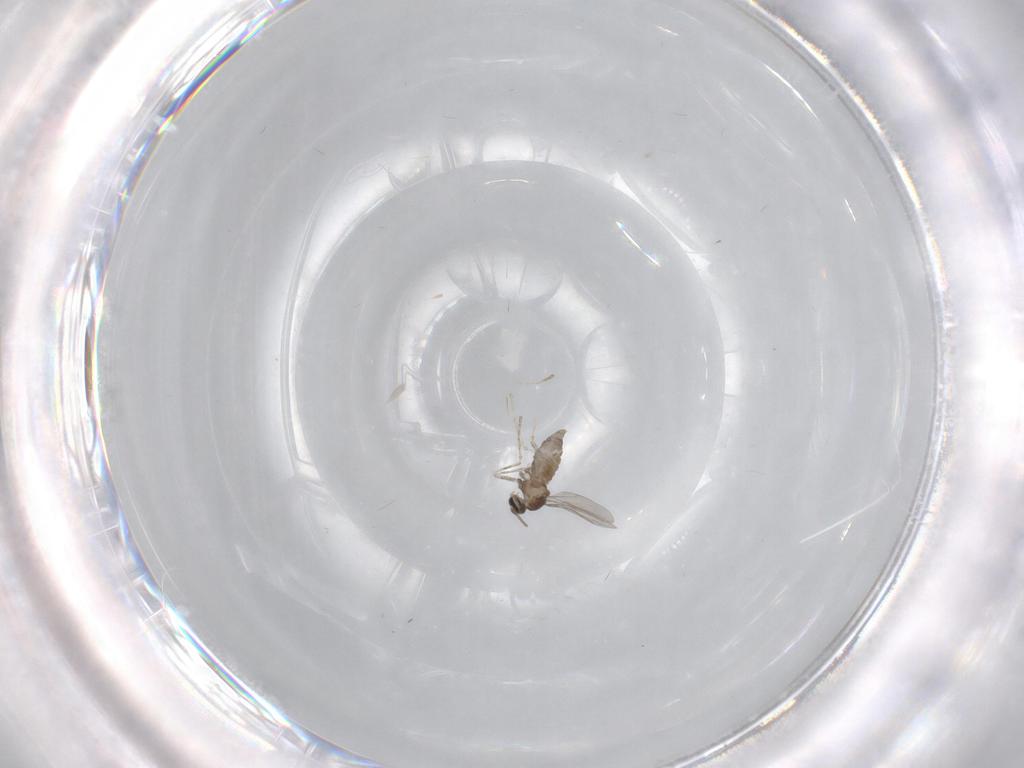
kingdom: Animalia
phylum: Arthropoda
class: Insecta
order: Diptera
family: Cecidomyiidae
